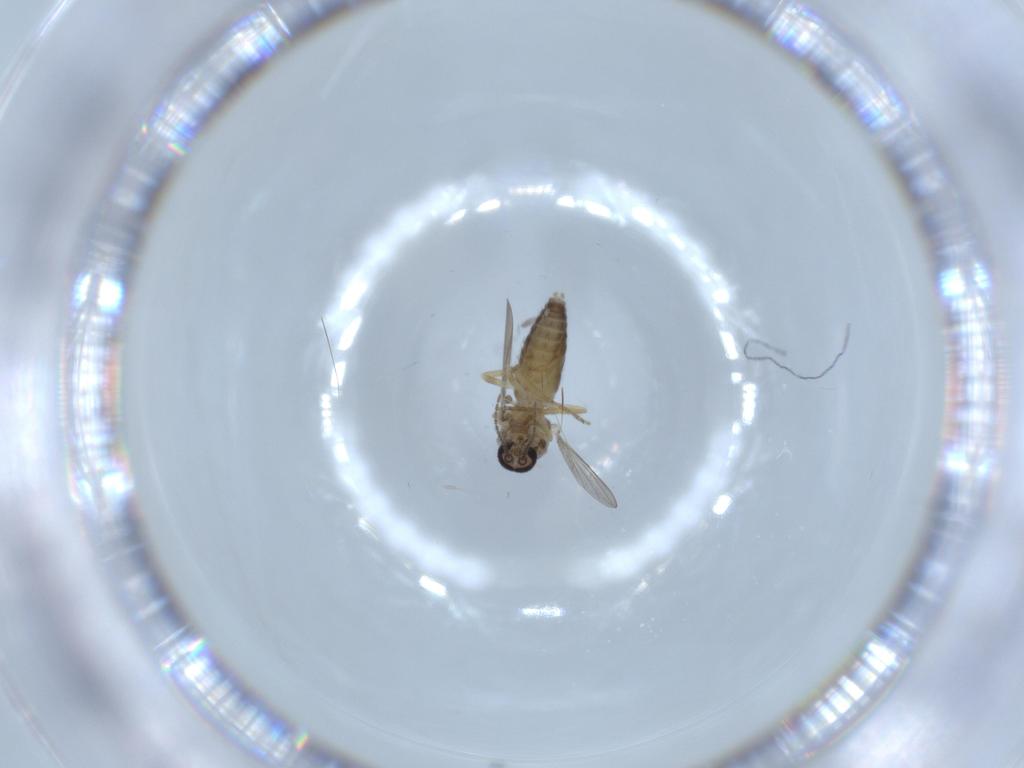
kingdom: Animalia
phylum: Arthropoda
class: Insecta
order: Diptera
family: Ceratopogonidae
